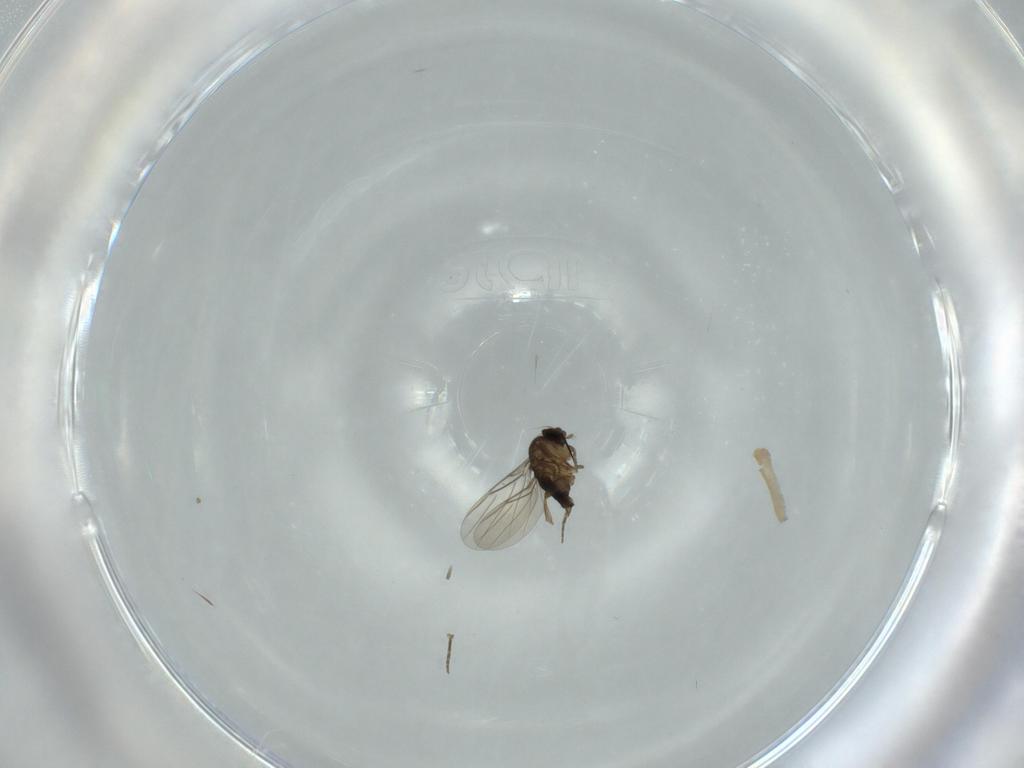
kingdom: Animalia
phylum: Arthropoda
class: Insecta
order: Diptera
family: Phoridae
